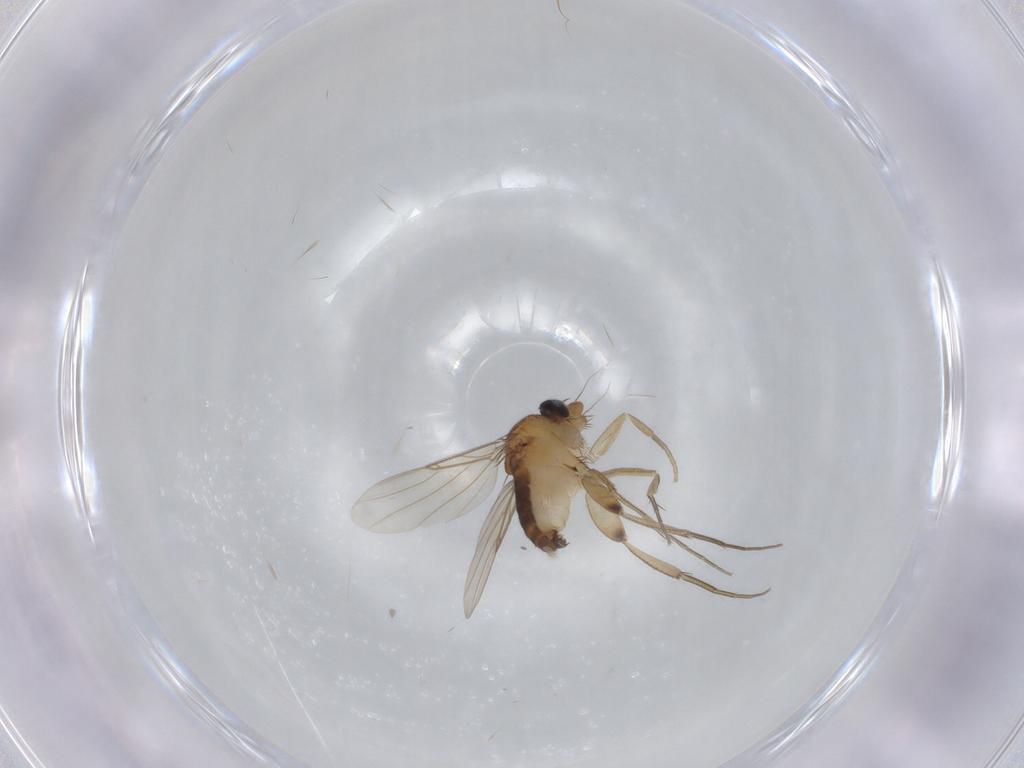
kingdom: Animalia
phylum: Arthropoda
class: Insecta
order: Diptera
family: Phoridae
